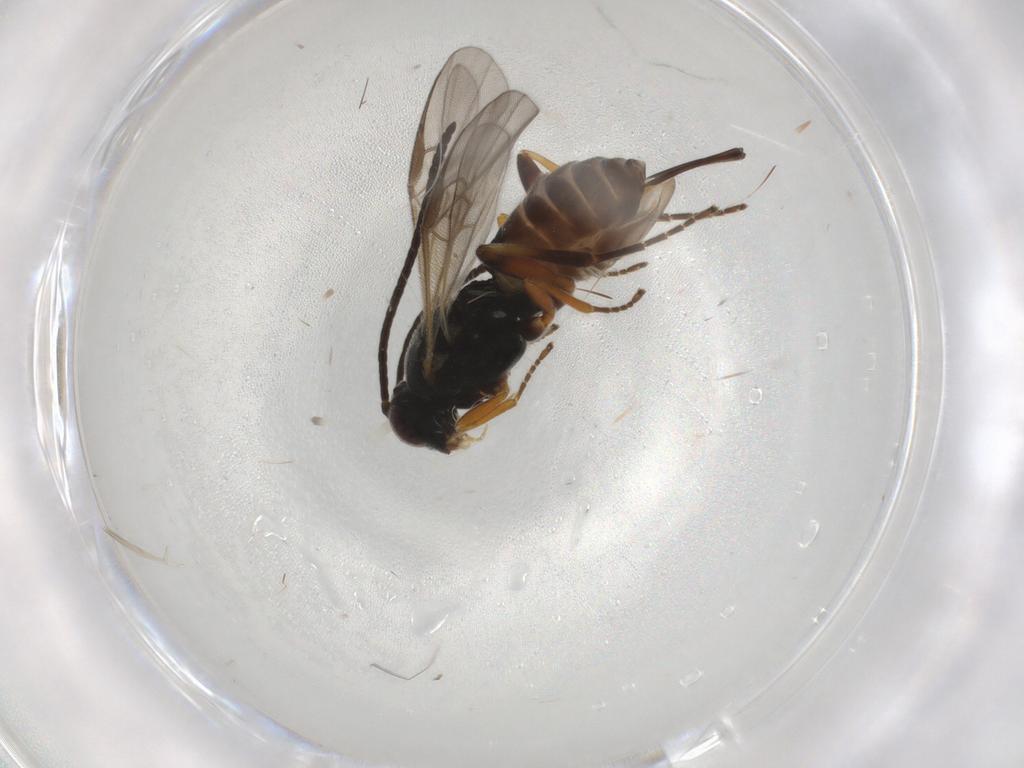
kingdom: Animalia
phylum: Arthropoda
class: Insecta
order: Hymenoptera
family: Braconidae
